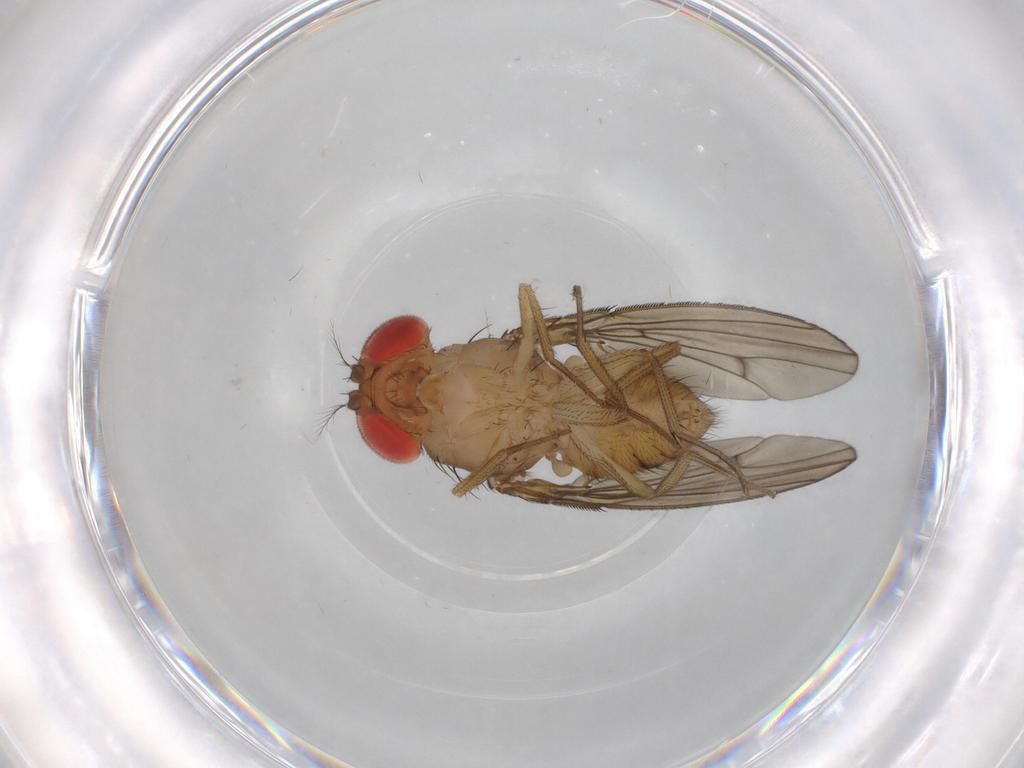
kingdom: Animalia
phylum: Arthropoda
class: Insecta
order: Diptera
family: Drosophilidae
